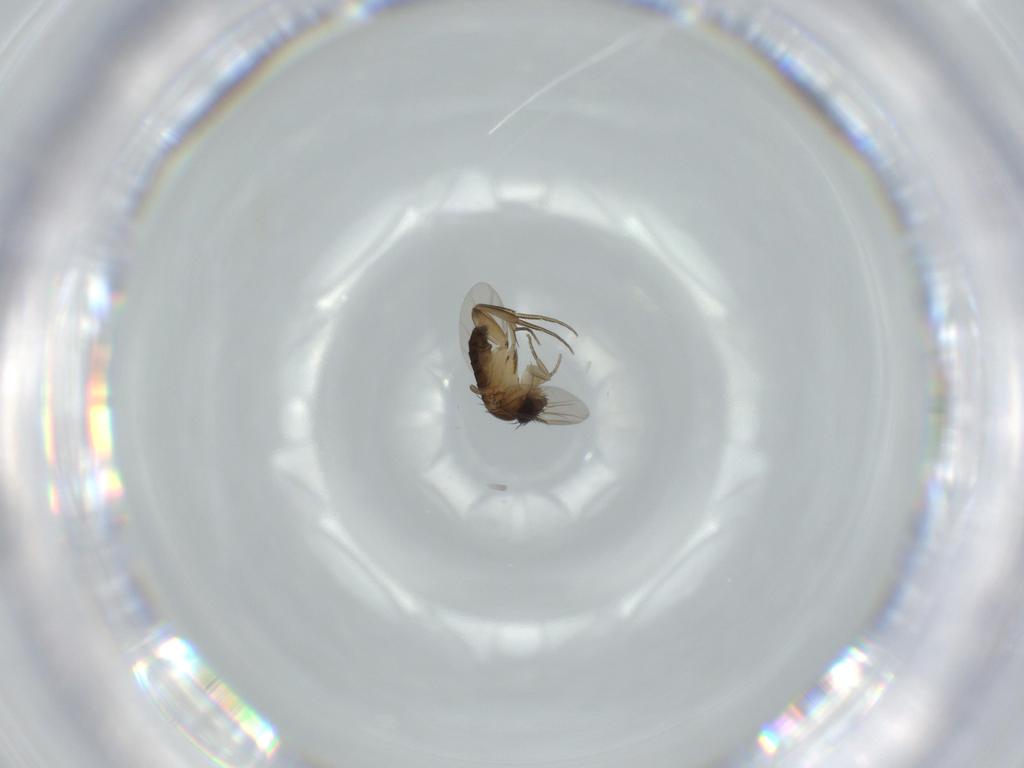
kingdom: Animalia
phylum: Arthropoda
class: Insecta
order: Diptera
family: Phoridae
